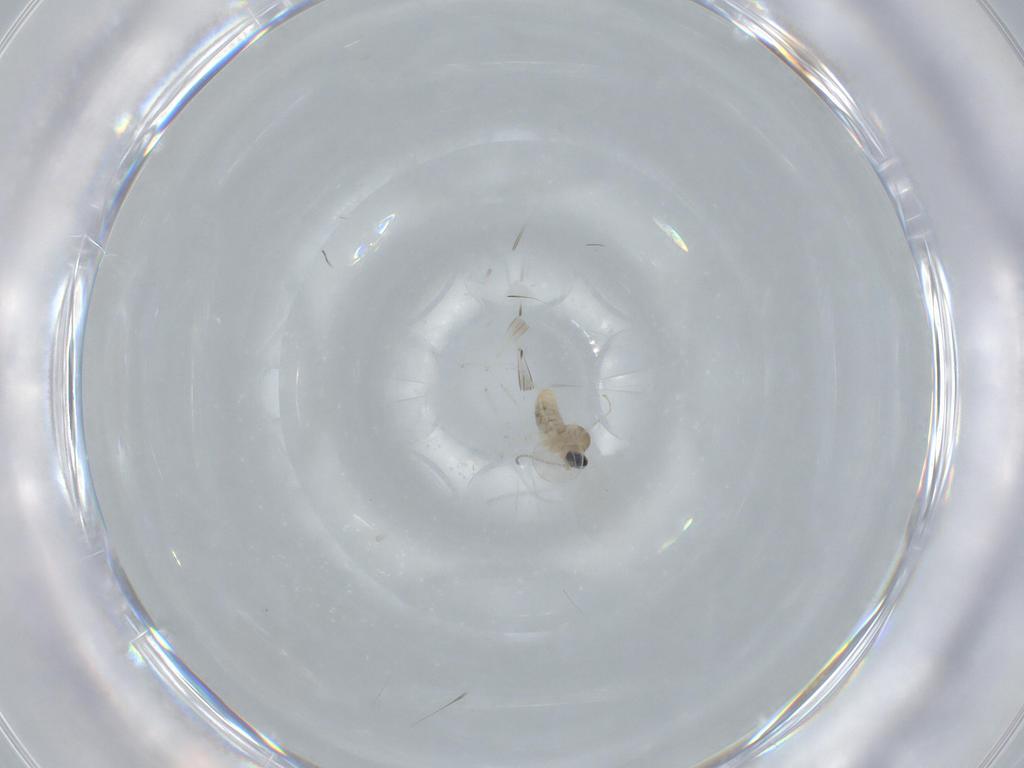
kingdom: Animalia
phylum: Arthropoda
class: Insecta
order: Diptera
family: Cecidomyiidae
